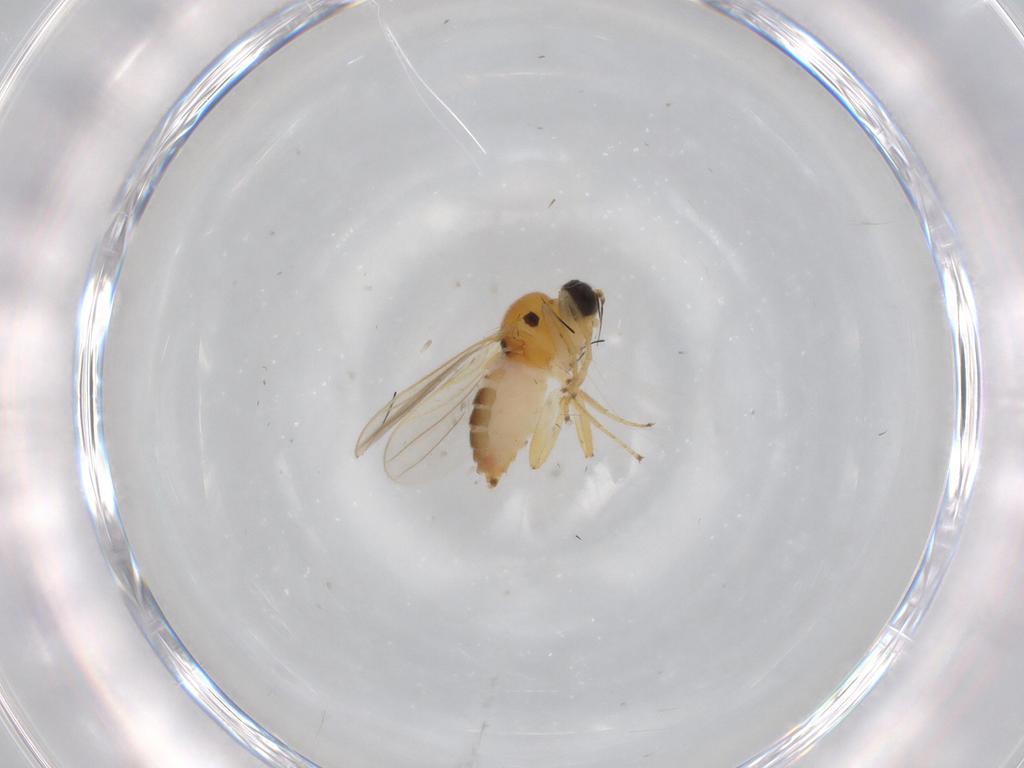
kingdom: Animalia
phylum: Arthropoda
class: Insecta
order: Diptera
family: Hybotidae
